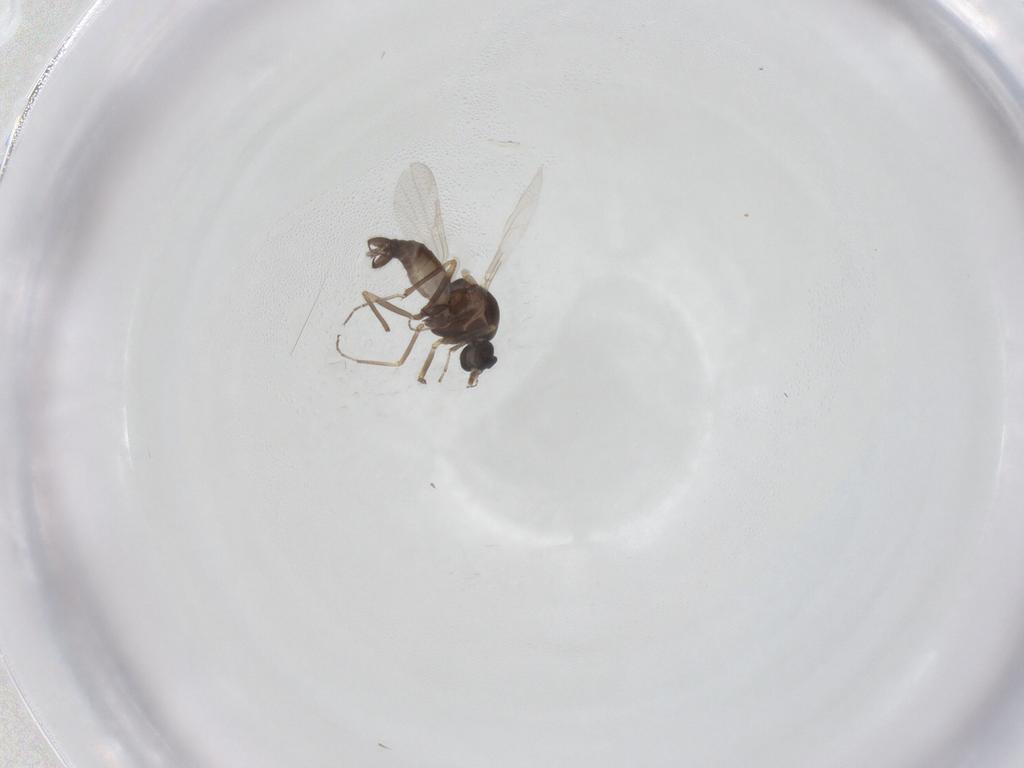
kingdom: Animalia
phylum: Arthropoda
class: Insecta
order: Diptera
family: Ceratopogonidae
